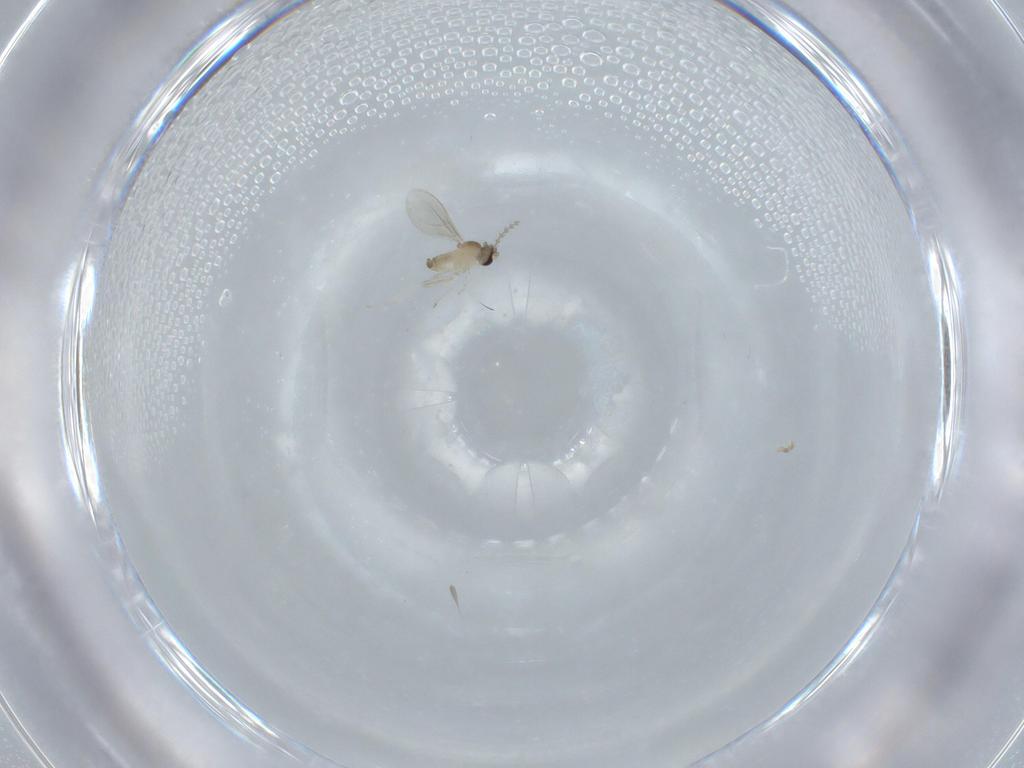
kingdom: Animalia
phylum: Arthropoda
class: Insecta
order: Diptera
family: Cecidomyiidae
